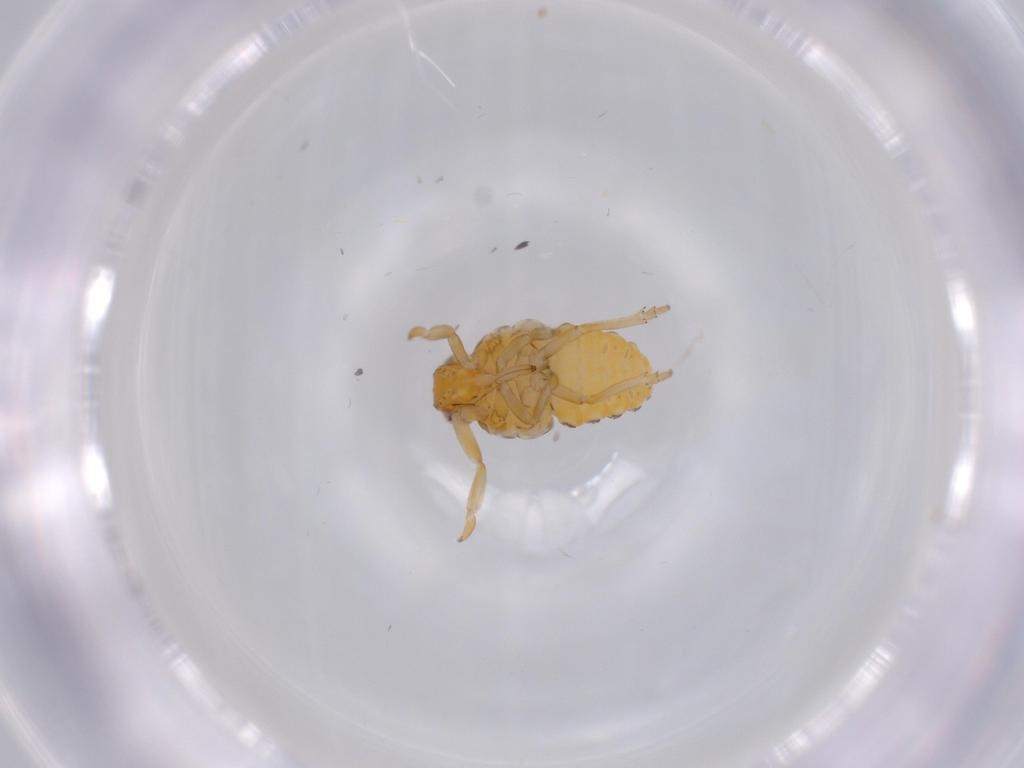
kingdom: Animalia
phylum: Arthropoda
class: Insecta
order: Hemiptera
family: Issidae
